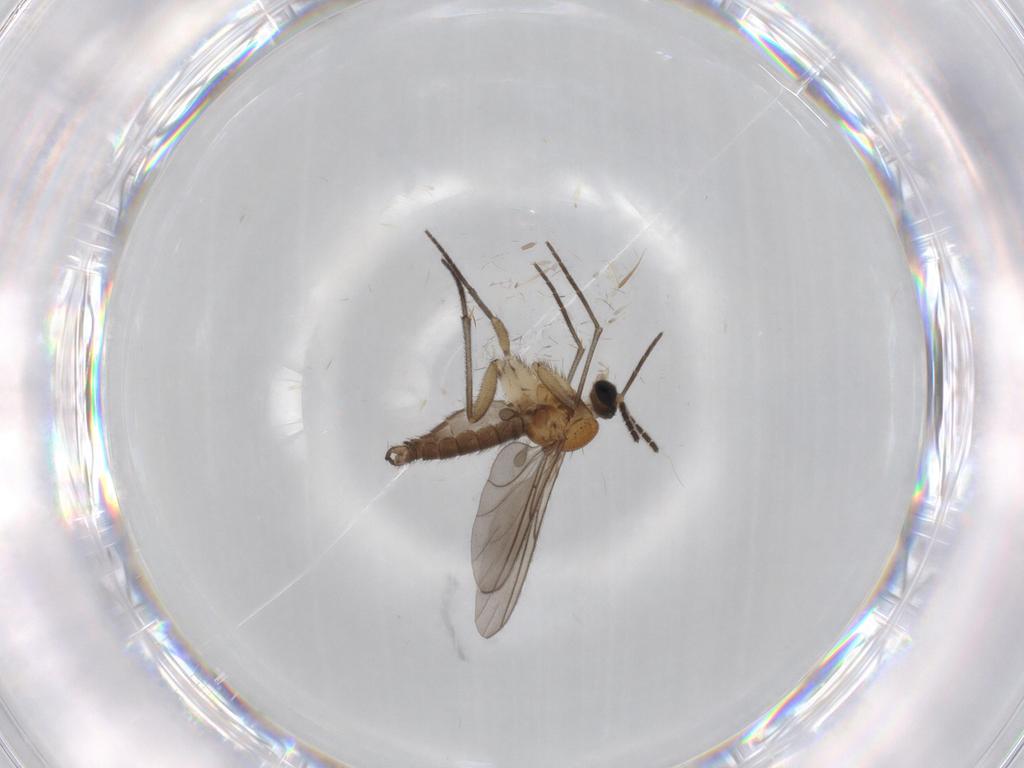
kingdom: Animalia
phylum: Arthropoda
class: Insecta
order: Diptera
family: Sciaridae
